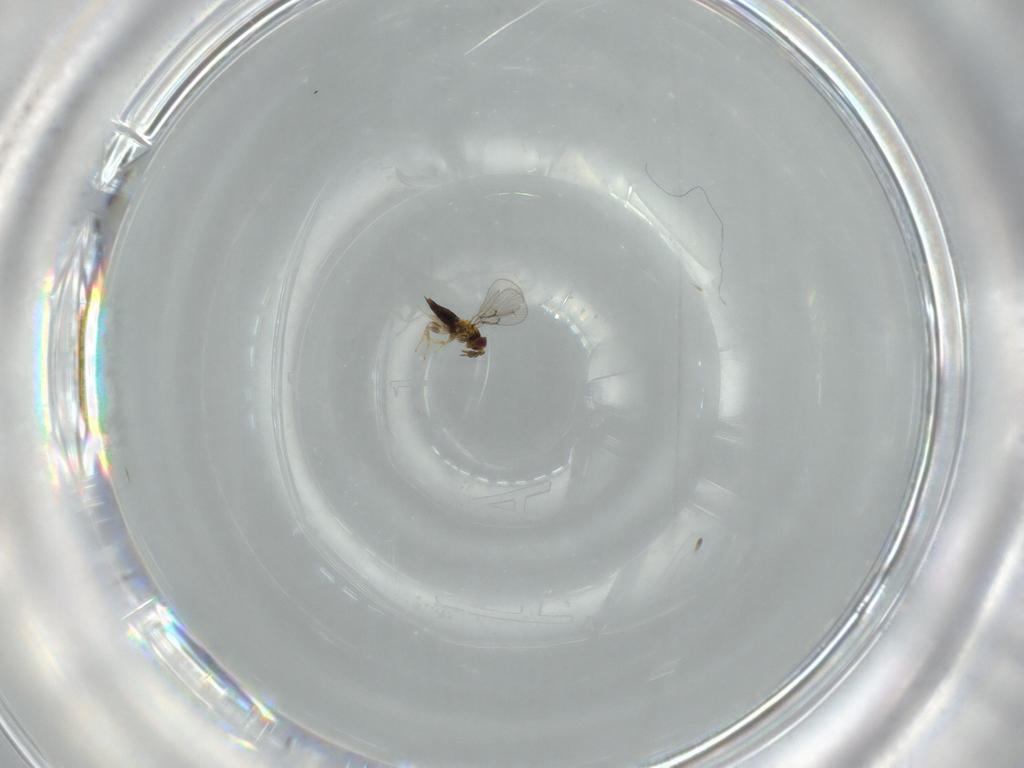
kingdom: Animalia
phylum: Arthropoda
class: Insecta
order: Hymenoptera
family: Trichogrammatidae
